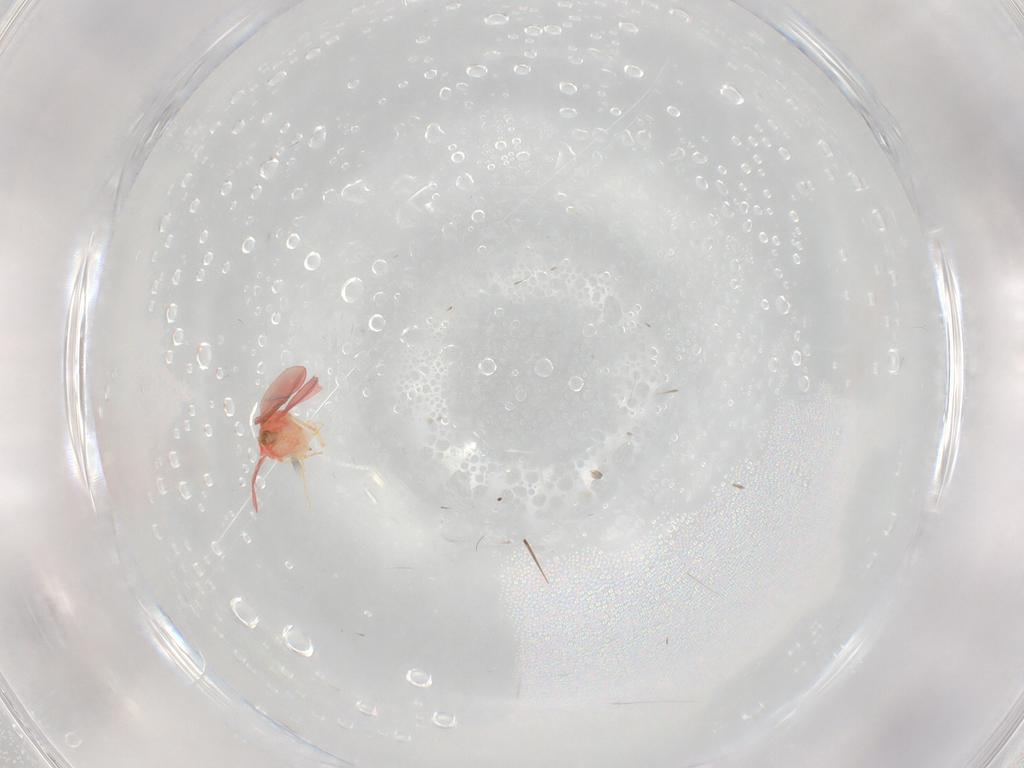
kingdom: Animalia
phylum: Arthropoda
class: Insecta
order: Hemiptera
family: Aleyrodidae
